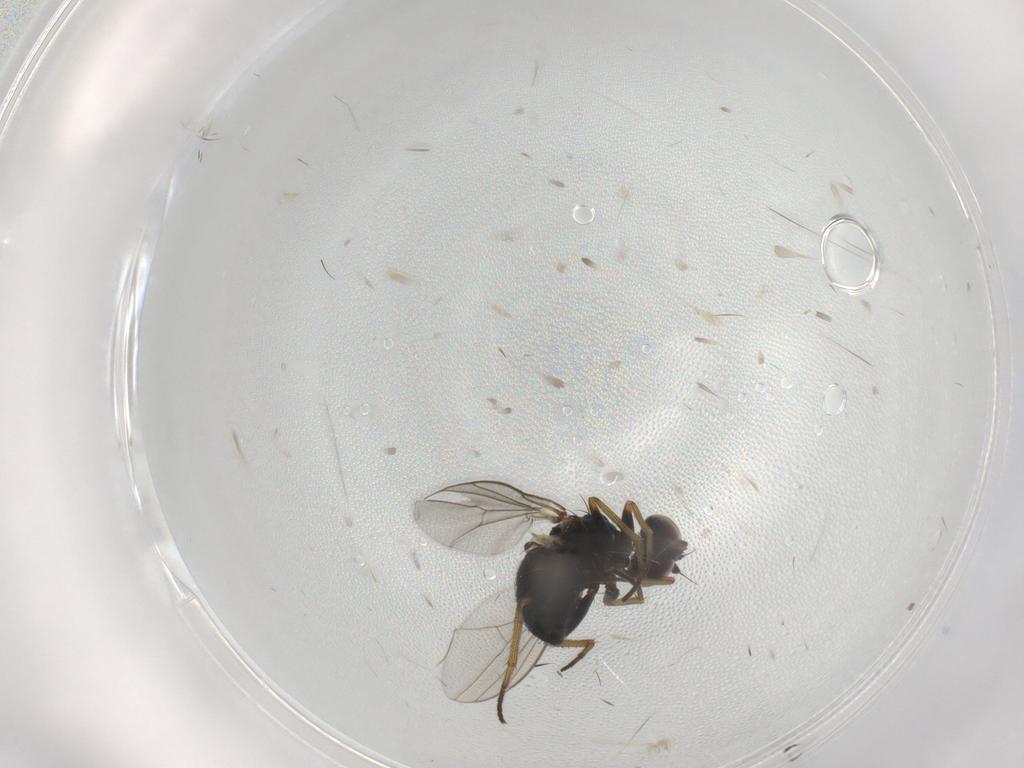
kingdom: Animalia
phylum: Arthropoda
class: Insecta
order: Diptera
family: Dolichopodidae
